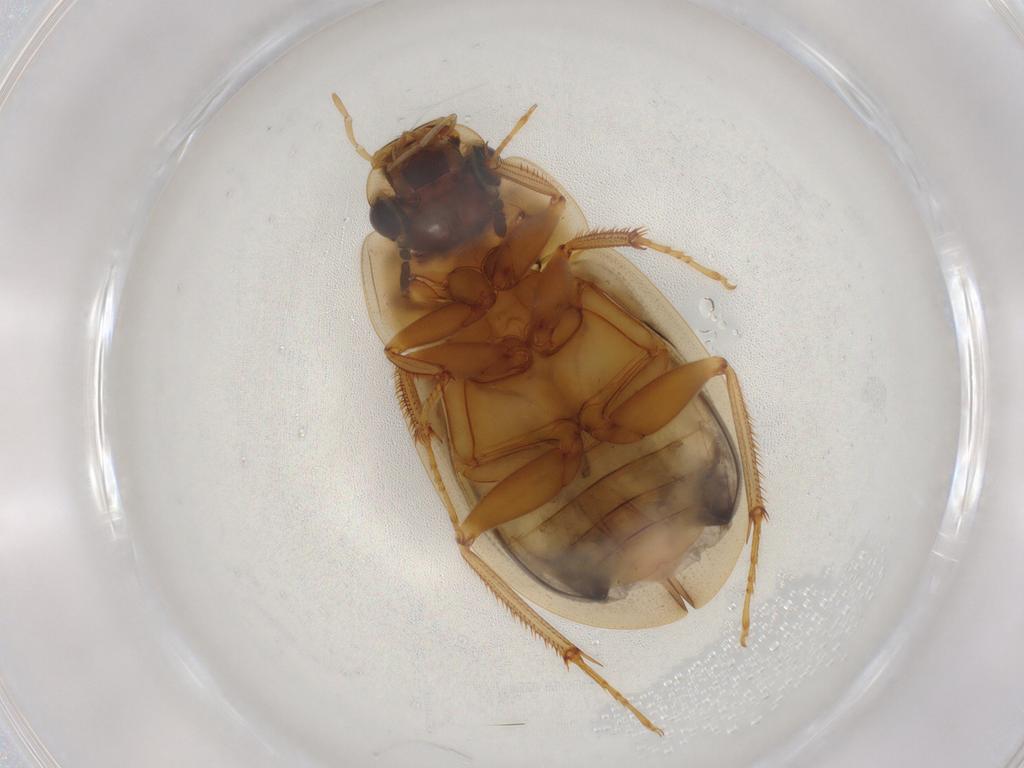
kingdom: Animalia
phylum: Arthropoda
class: Insecta
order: Coleoptera
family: Hydrophilidae
